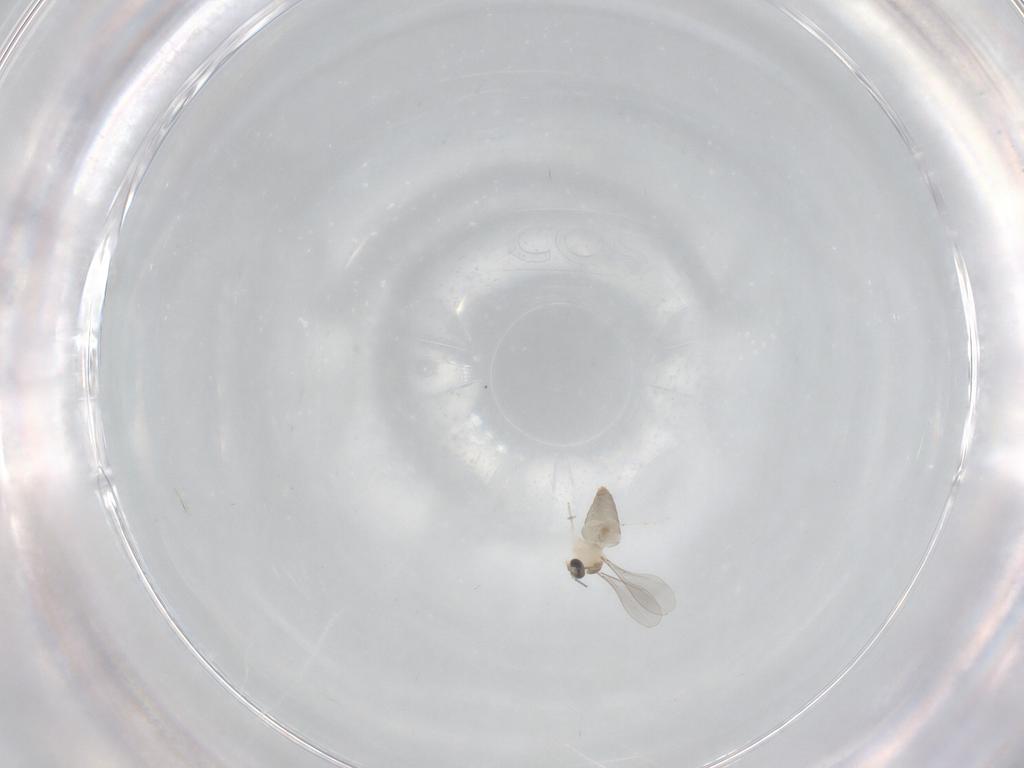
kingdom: Animalia
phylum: Arthropoda
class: Insecta
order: Diptera
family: Cecidomyiidae
